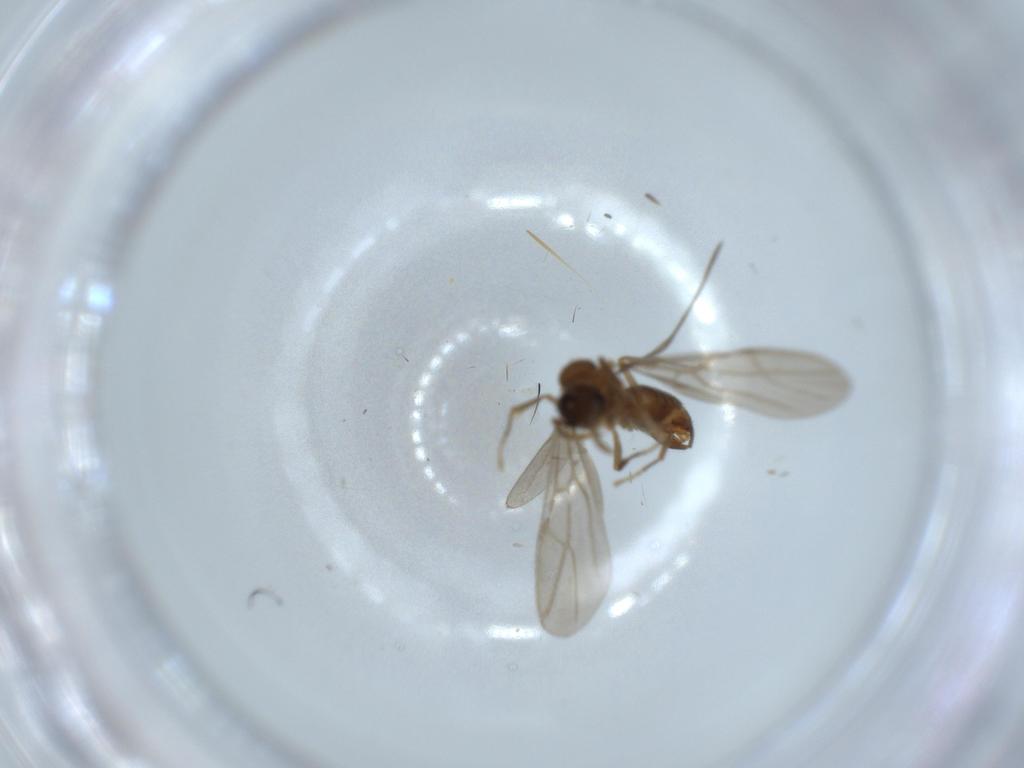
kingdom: Animalia
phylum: Arthropoda
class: Insecta
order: Hymenoptera
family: Formicidae
